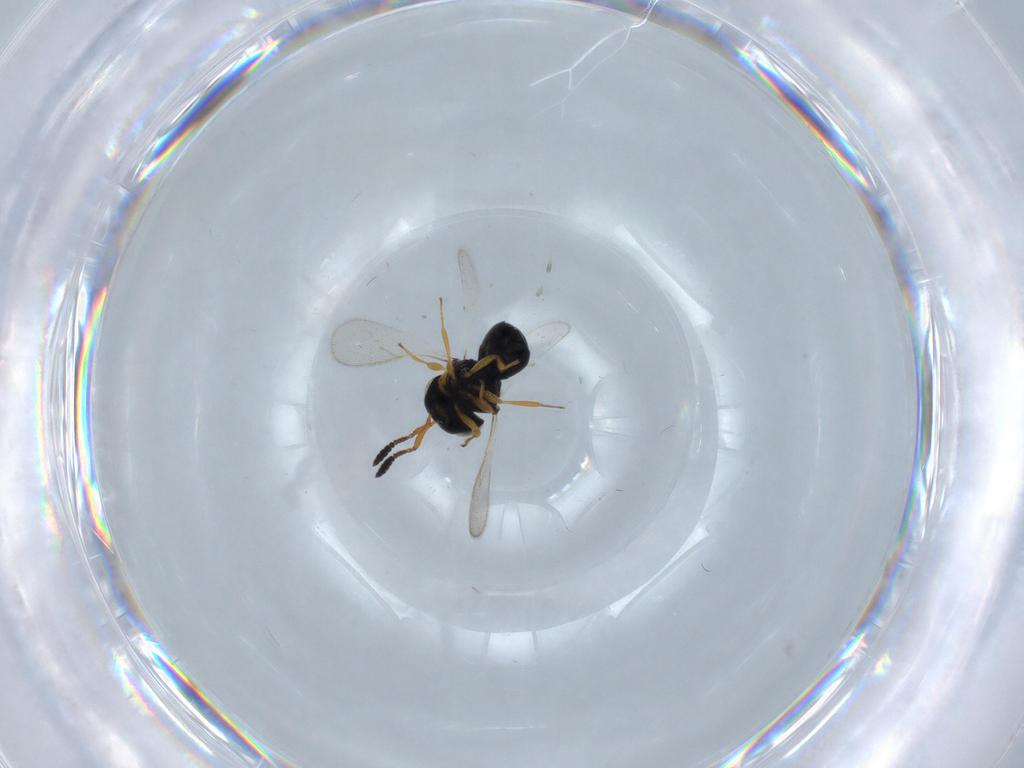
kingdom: Animalia
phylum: Arthropoda
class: Insecta
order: Hymenoptera
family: Scelionidae
